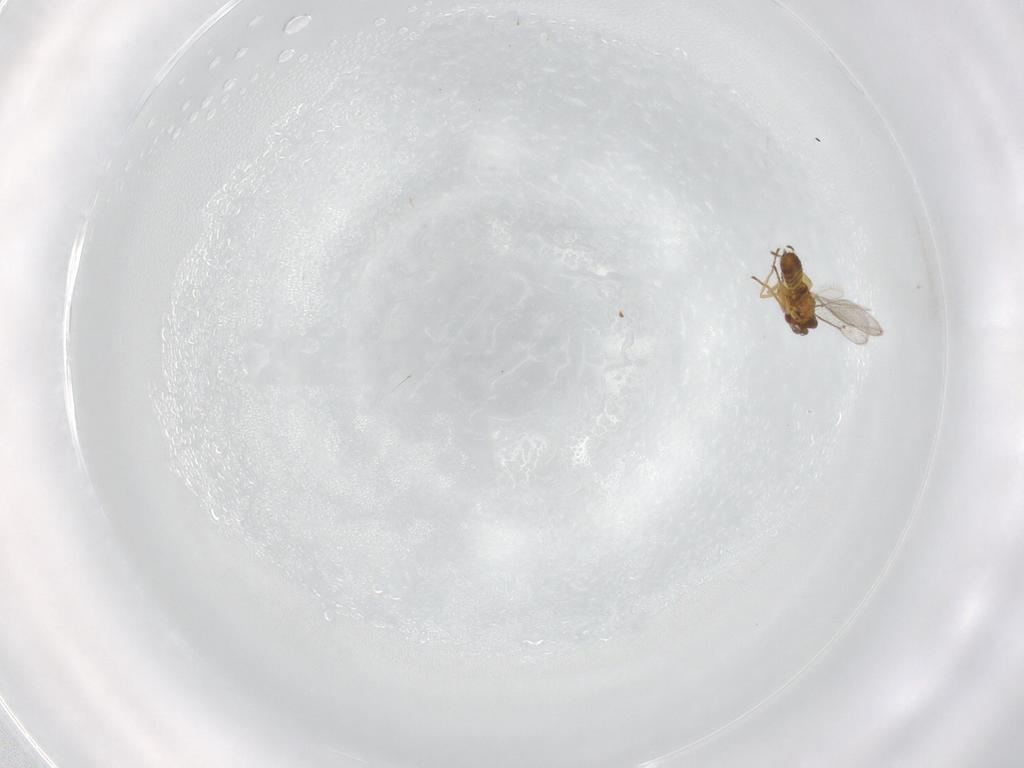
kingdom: Animalia
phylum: Arthropoda
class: Insecta
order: Hymenoptera
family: Eulophidae
